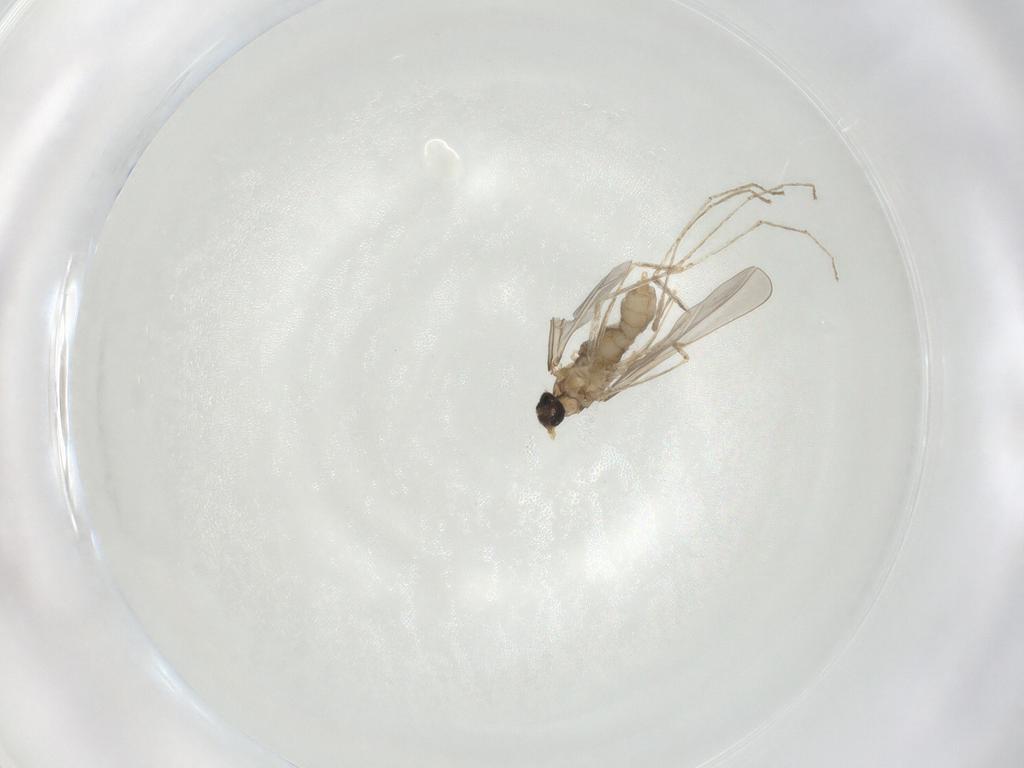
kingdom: Animalia
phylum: Arthropoda
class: Insecta
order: Diptera
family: Cecidomyiidae
